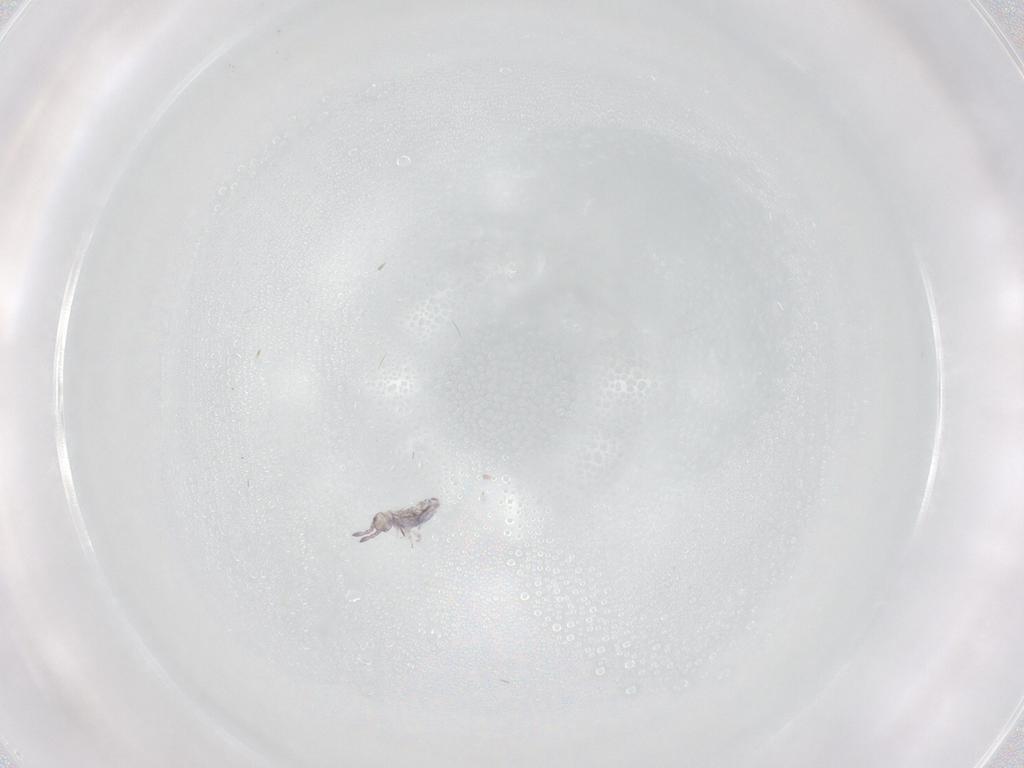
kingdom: Animalia
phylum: Arthropoda
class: Collembola
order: Entomobryomorpha
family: Entomobryidae
